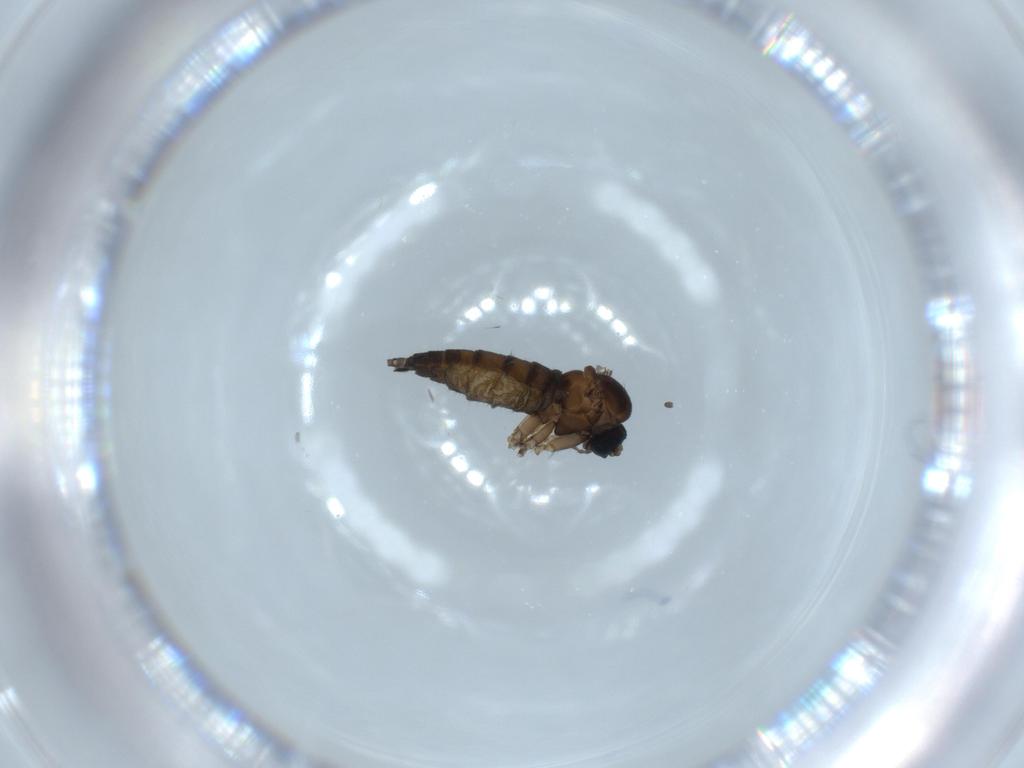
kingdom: Animalia
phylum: Arthropoda
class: Insecta
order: Diptera
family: Sciaridae
